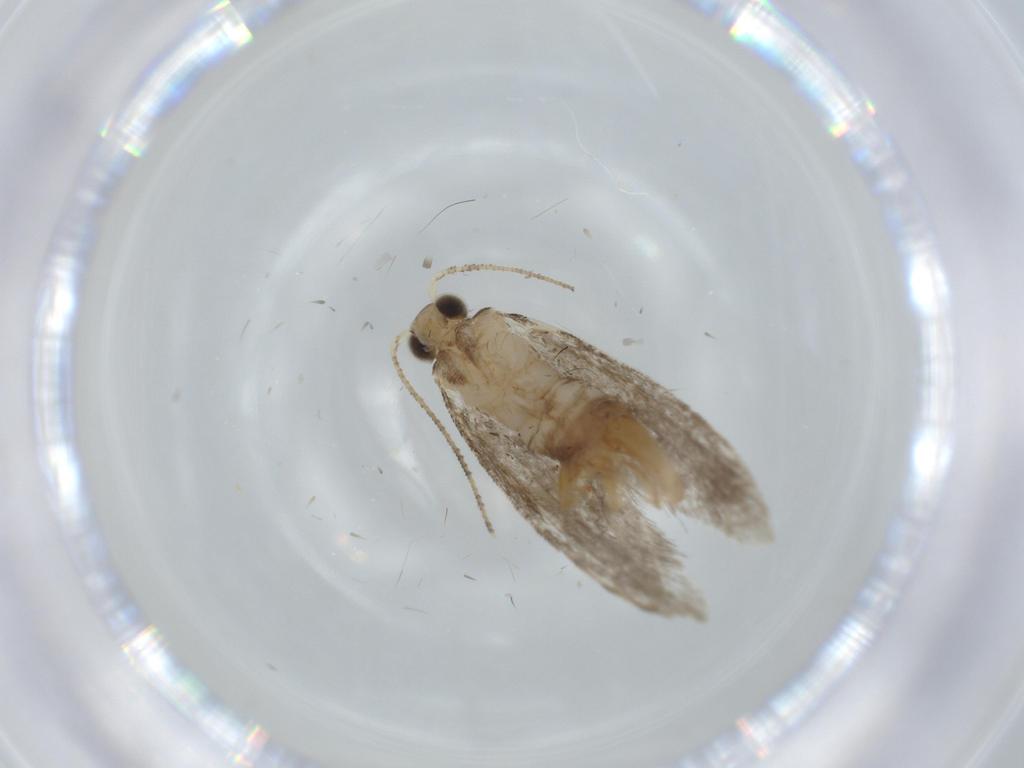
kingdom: Animalia
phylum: Arthropoda
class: Insecta
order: Lepidoptera
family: Tineidae
